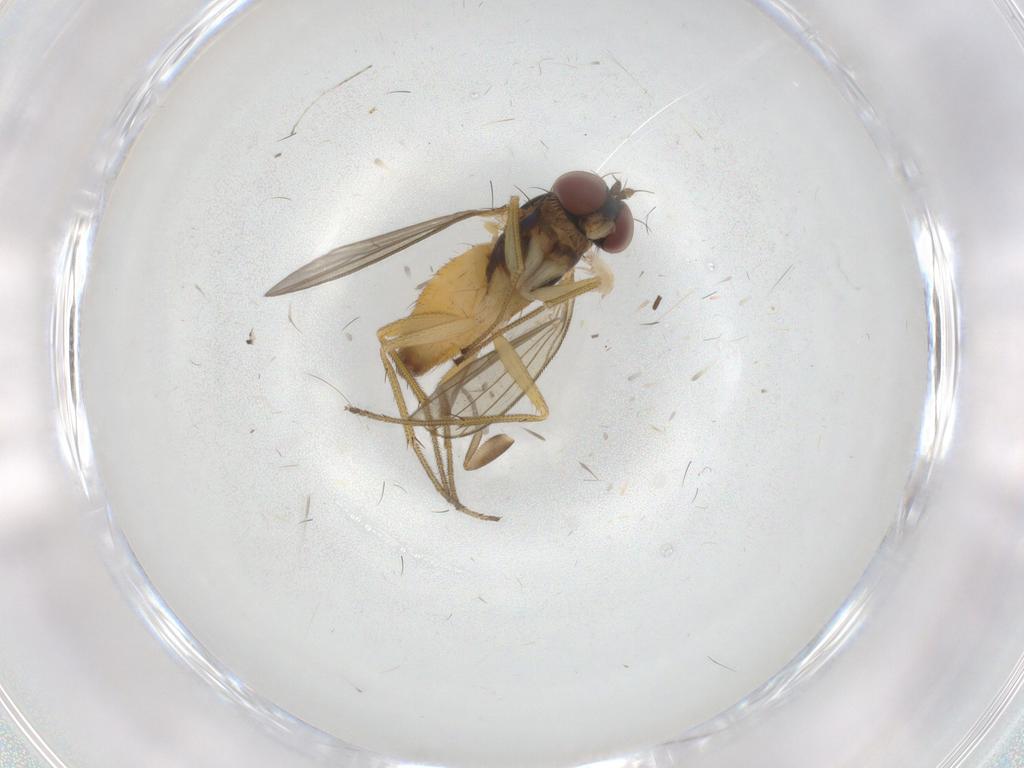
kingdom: Animalia
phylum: Arthropoda
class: Insecta
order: Diptera
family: Dolichopodidae
